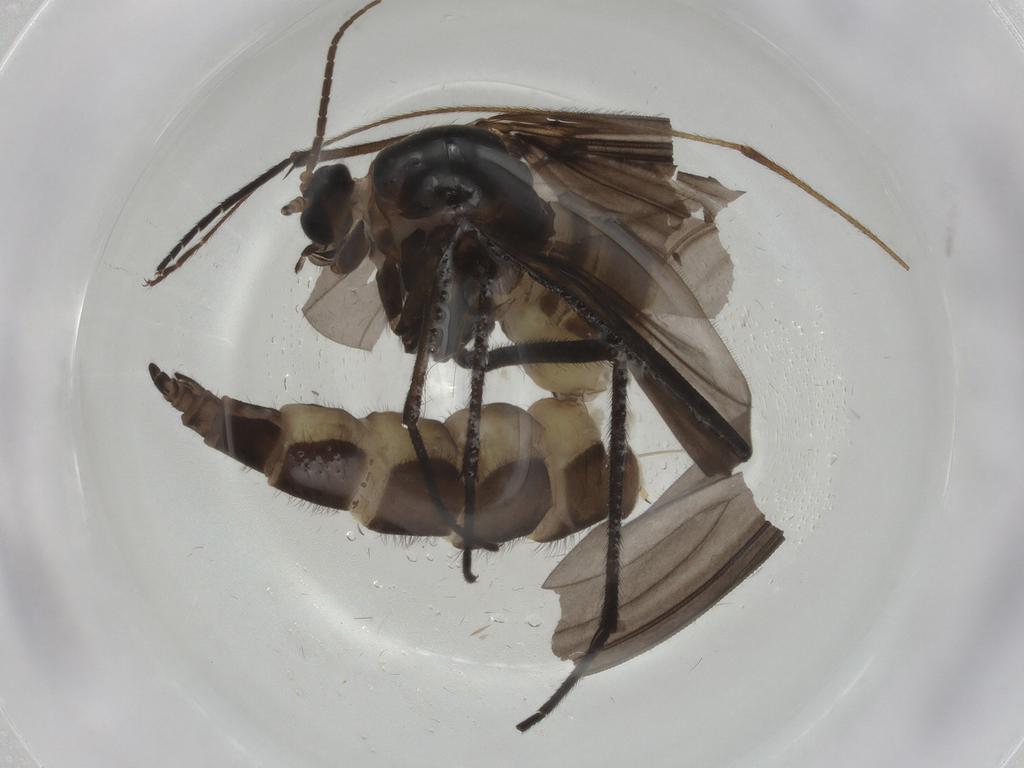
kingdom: Animalia
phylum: Arthropoda
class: Insecta
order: Diptera
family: Sciaridae
